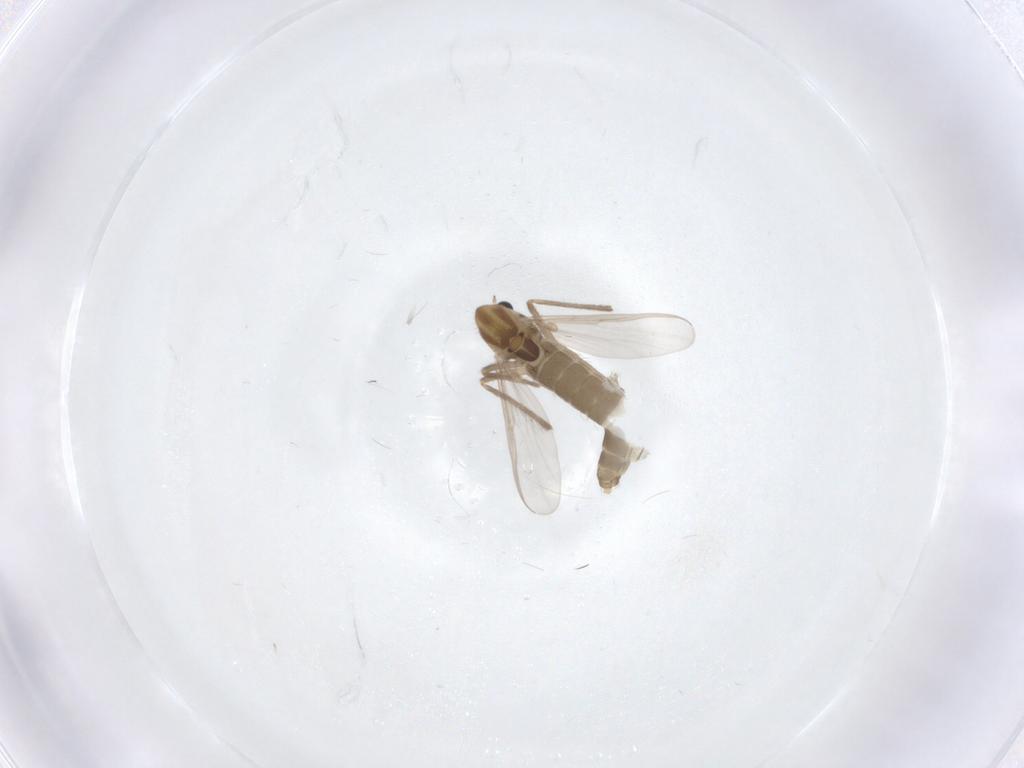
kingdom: Animalia
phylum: Arthropoda
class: Insecta
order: Diptera
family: Chironomidae
